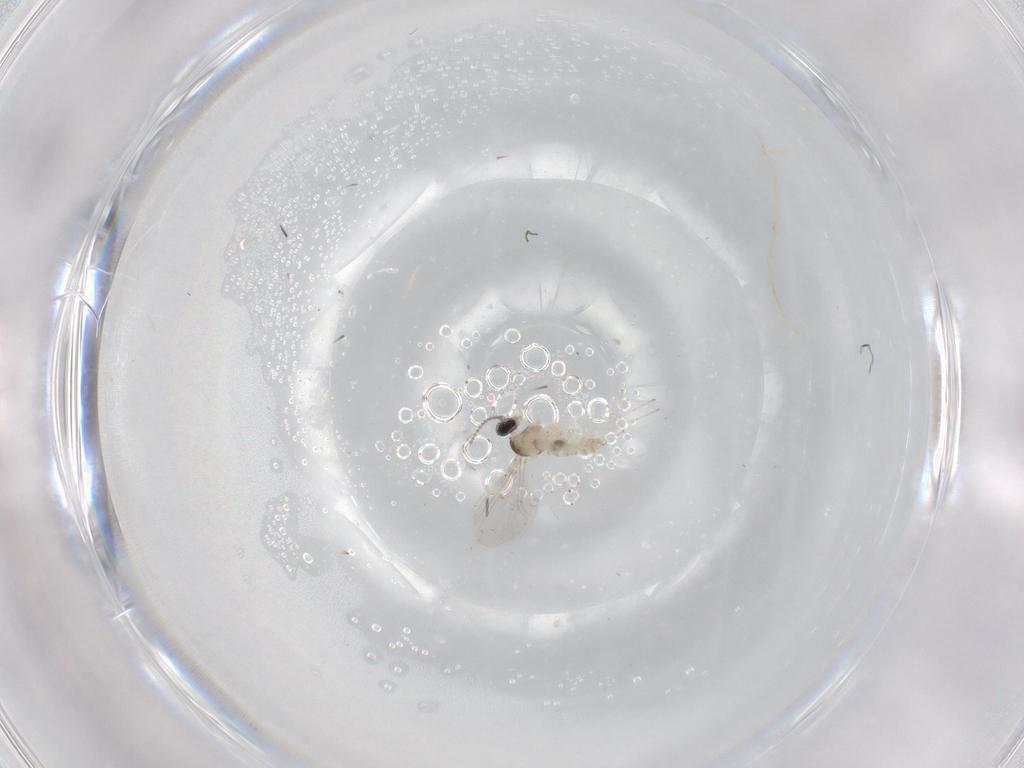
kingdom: Animalia
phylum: Arthropoda
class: Insecta
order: Diptera
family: Cecidomyiidae
